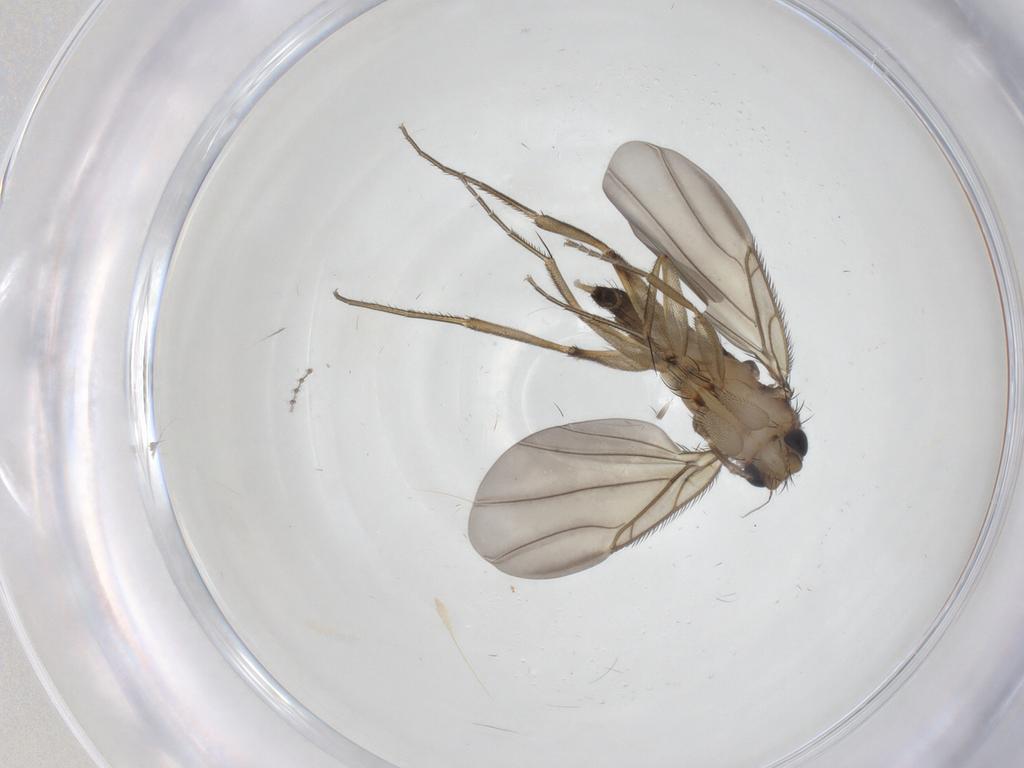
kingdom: Animalia
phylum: Arthropoda
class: Insecta
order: Diptera
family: Phoridae
